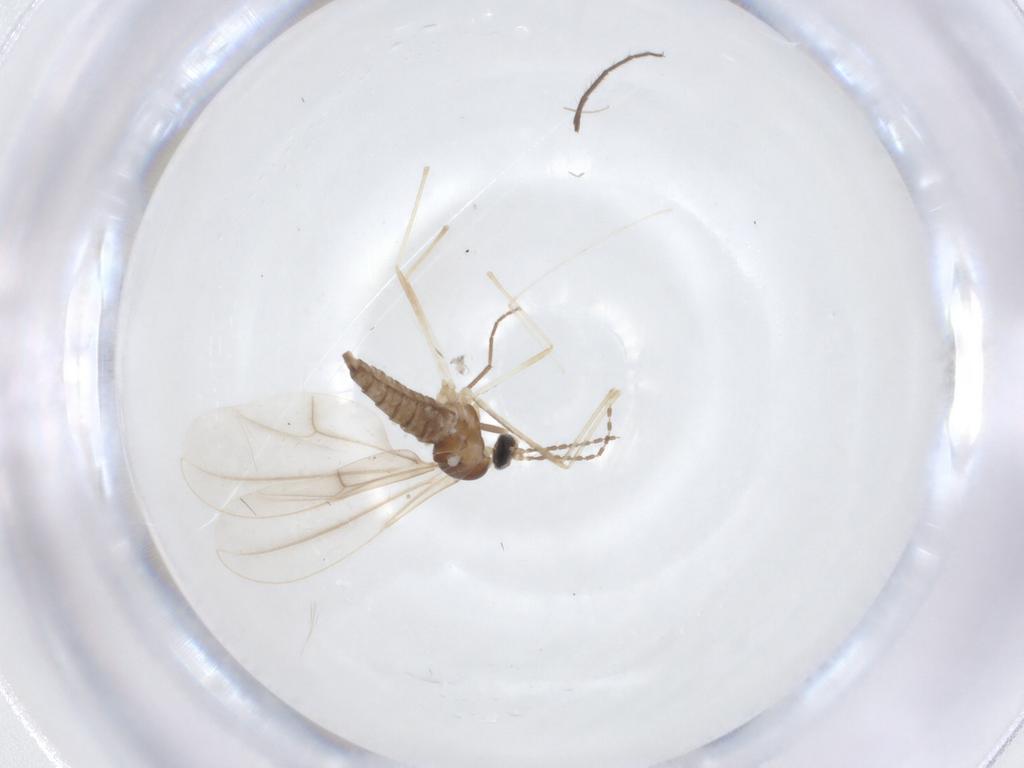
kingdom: Animalia
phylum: Arthropoda
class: Insecta
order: Diptera
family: Cecidomyiidae
